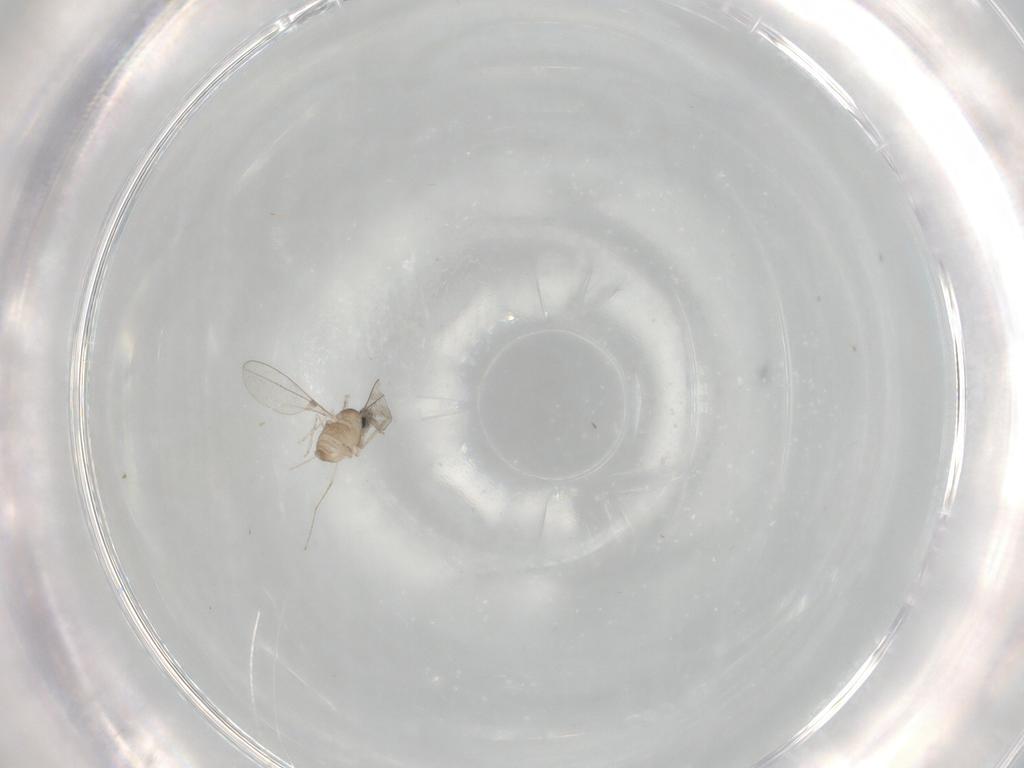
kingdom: Animalia
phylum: Arthropoda
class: Insecta
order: Diptera
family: Cecidomyiidae
